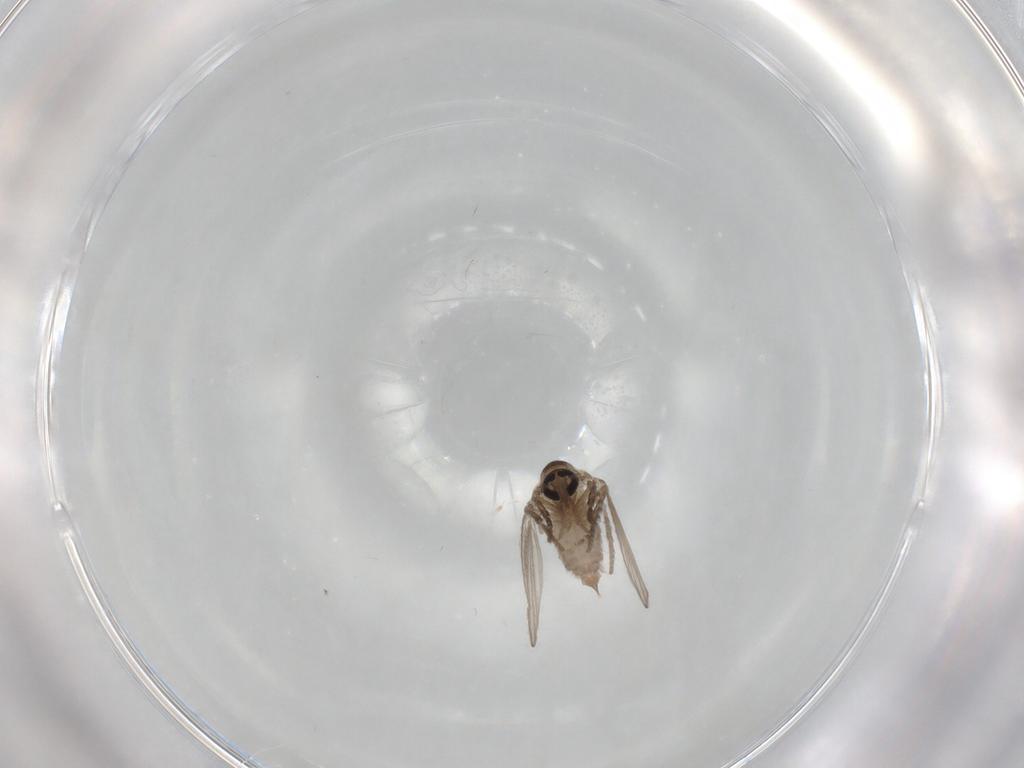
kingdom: Animalia
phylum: Arthropoda
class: Insecta
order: Diptera
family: Psychodidae
